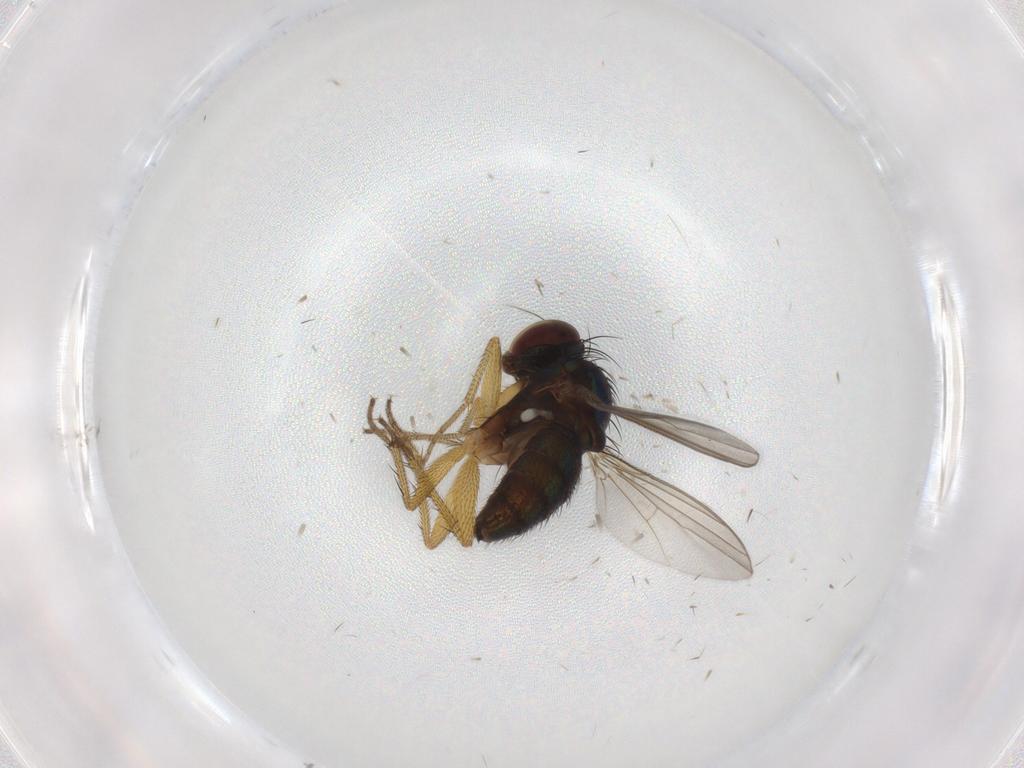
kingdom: Animalia
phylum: Arthropoda
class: Insecta
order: Diptera
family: Dolichopodidae
